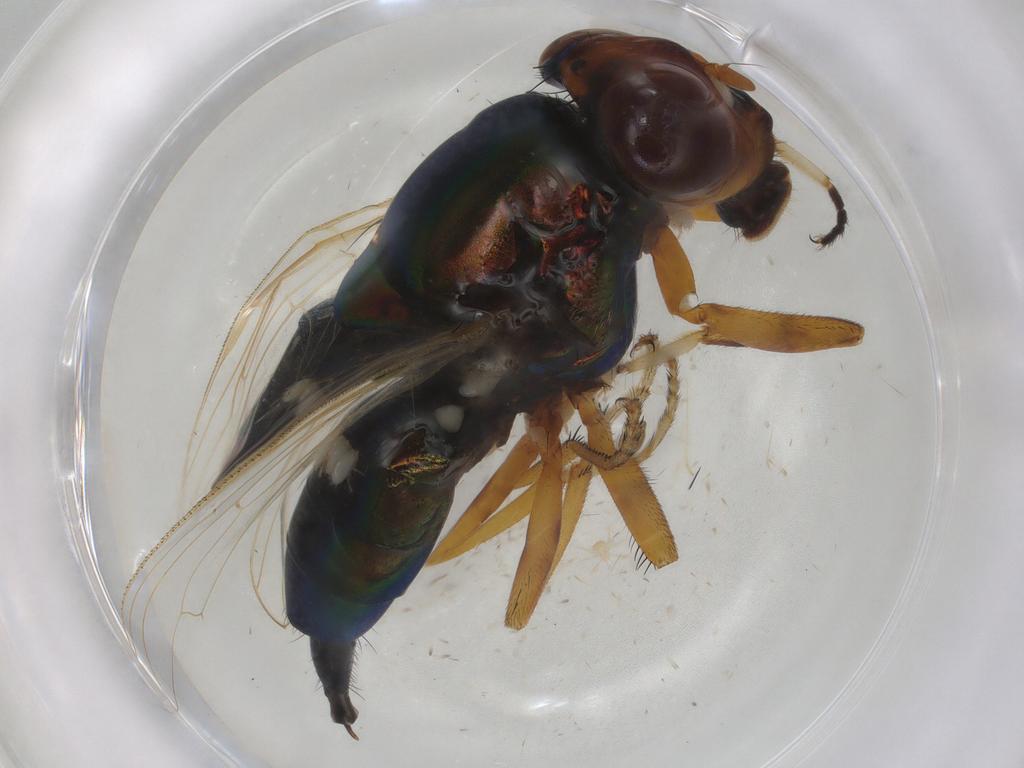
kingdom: Animalia
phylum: Arthropoda
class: Insecta
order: Diptera
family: Ulidiidae
